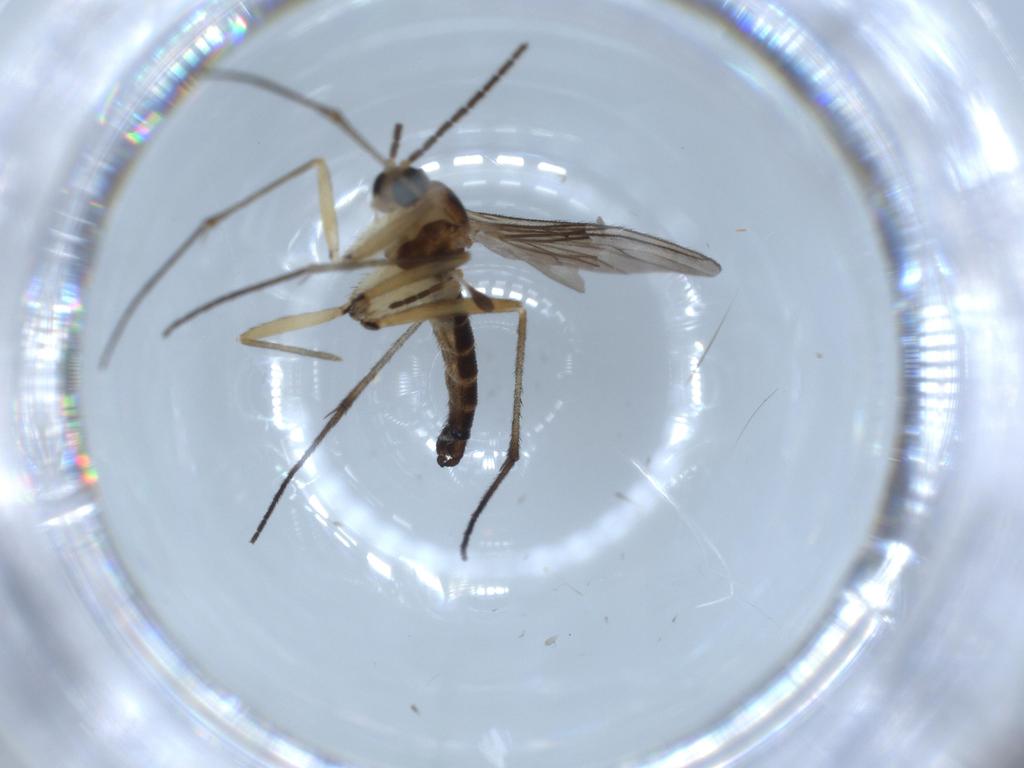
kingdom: Animalia
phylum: Arthropoda
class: Insecta
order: Diptera
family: Sciaridae
